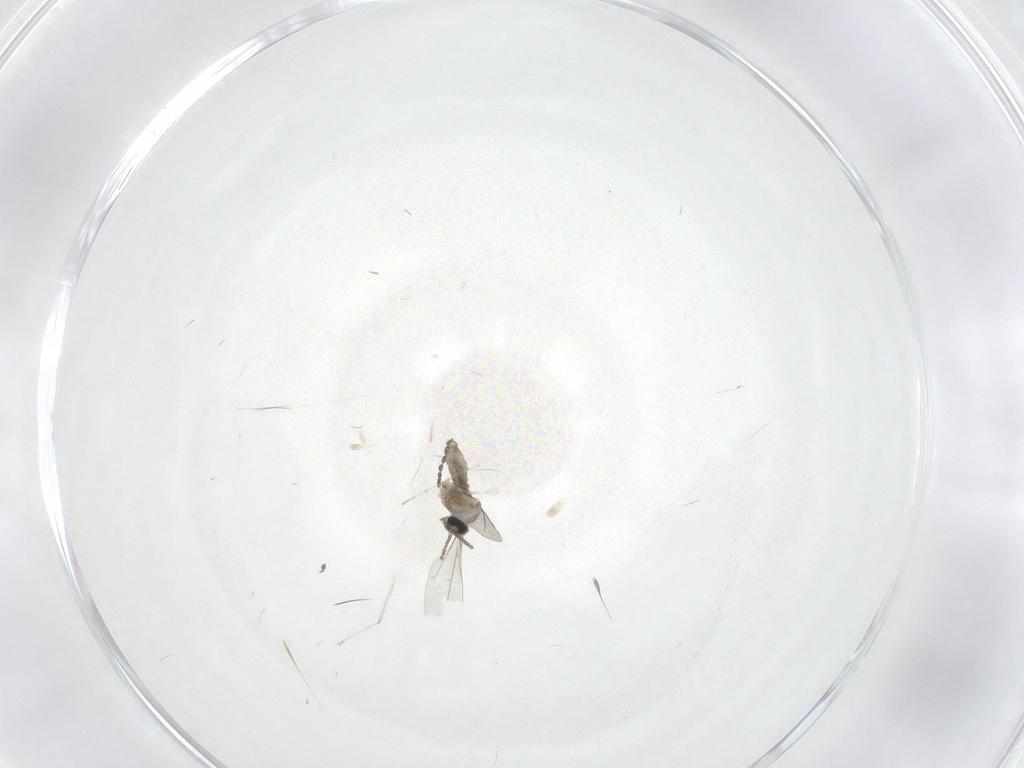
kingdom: Animalia
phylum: Arthropoda
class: Insecta
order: Diptera
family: Cecidomyiidae
